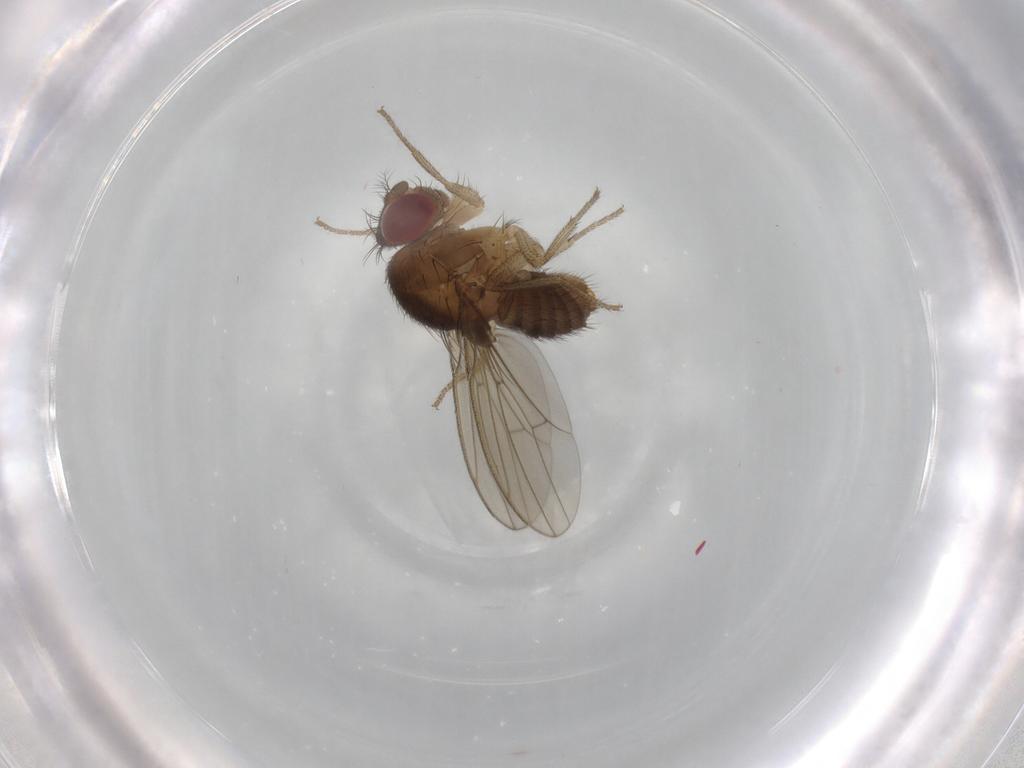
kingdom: Animalia
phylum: Arthropoda
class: Insecta
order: Diptera
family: Drosophilidae
